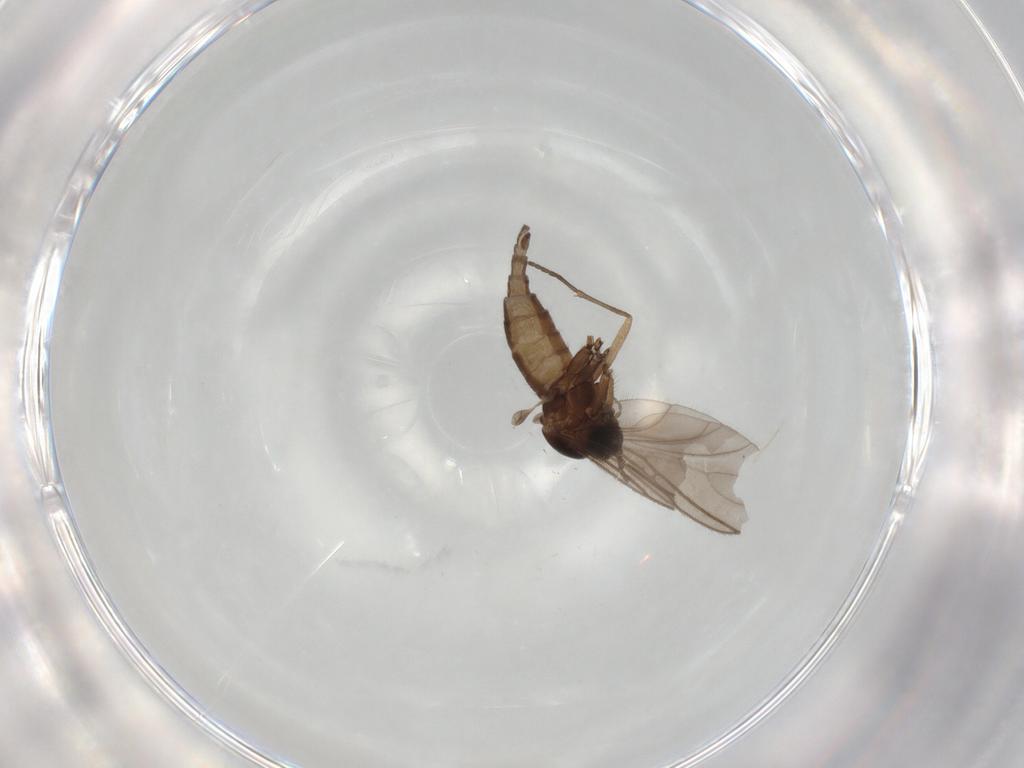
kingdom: Animalia
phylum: Arthropoda
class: Insecta
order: Diptera
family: Sciaridae
